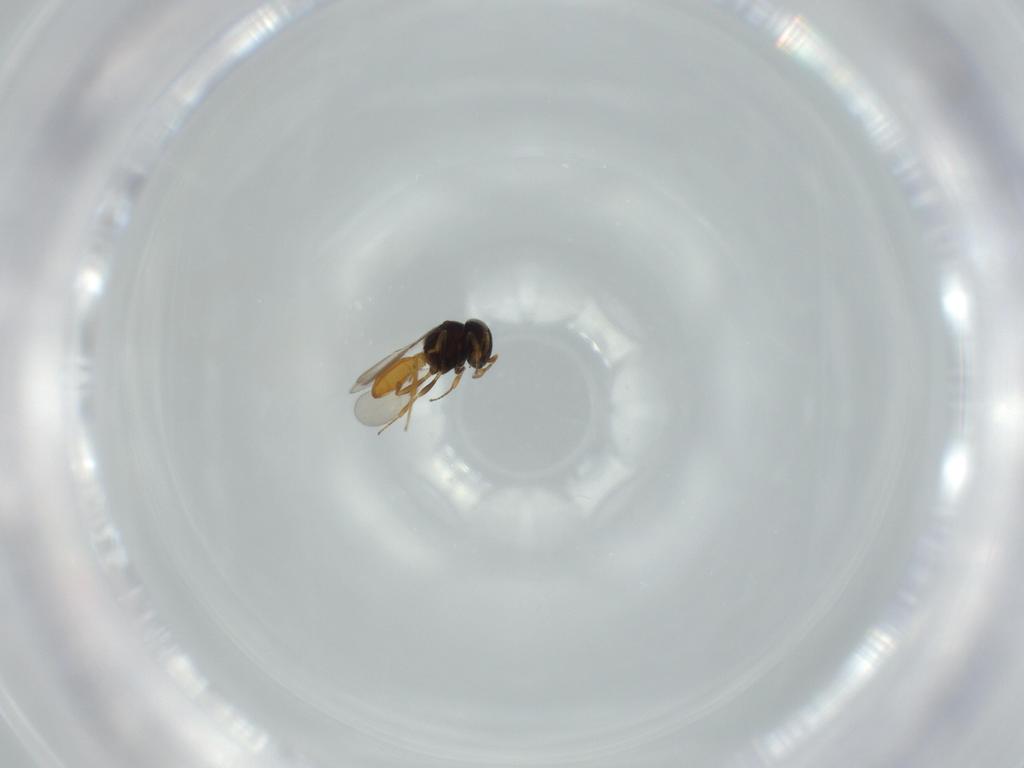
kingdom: Animalia
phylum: Arthropoda
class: Insecta
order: Hymenoptera
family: Scelionidae
